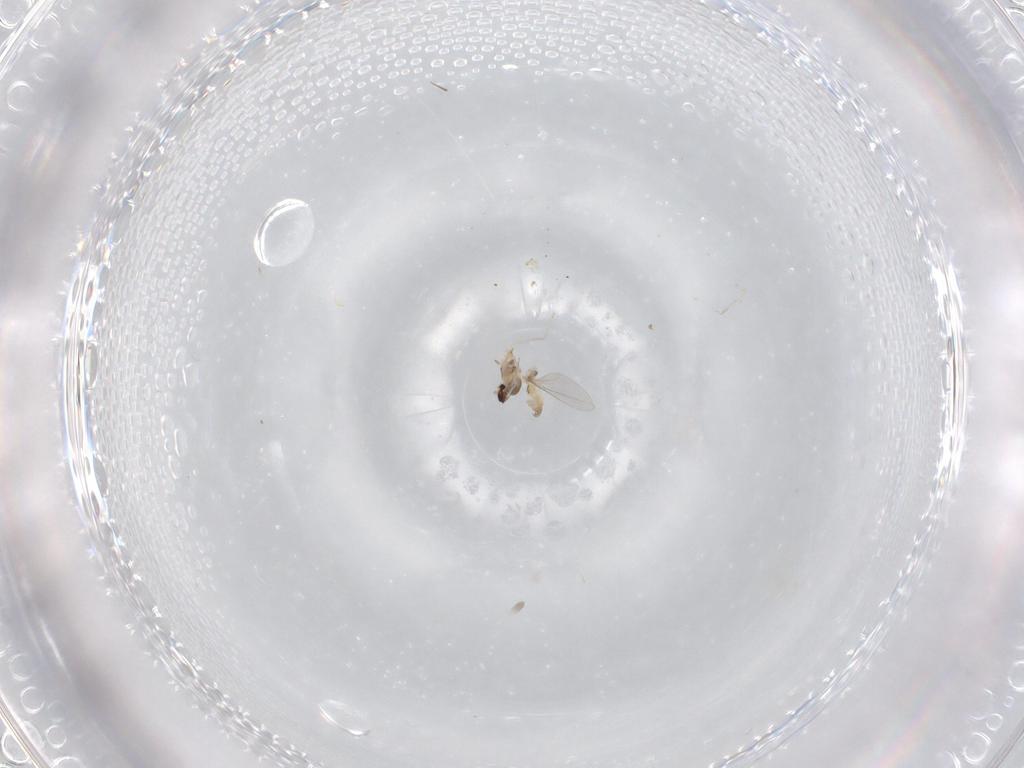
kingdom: Animalia
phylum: Arthropoda
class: Insecta
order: Diptera
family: Cecidomyiidae
